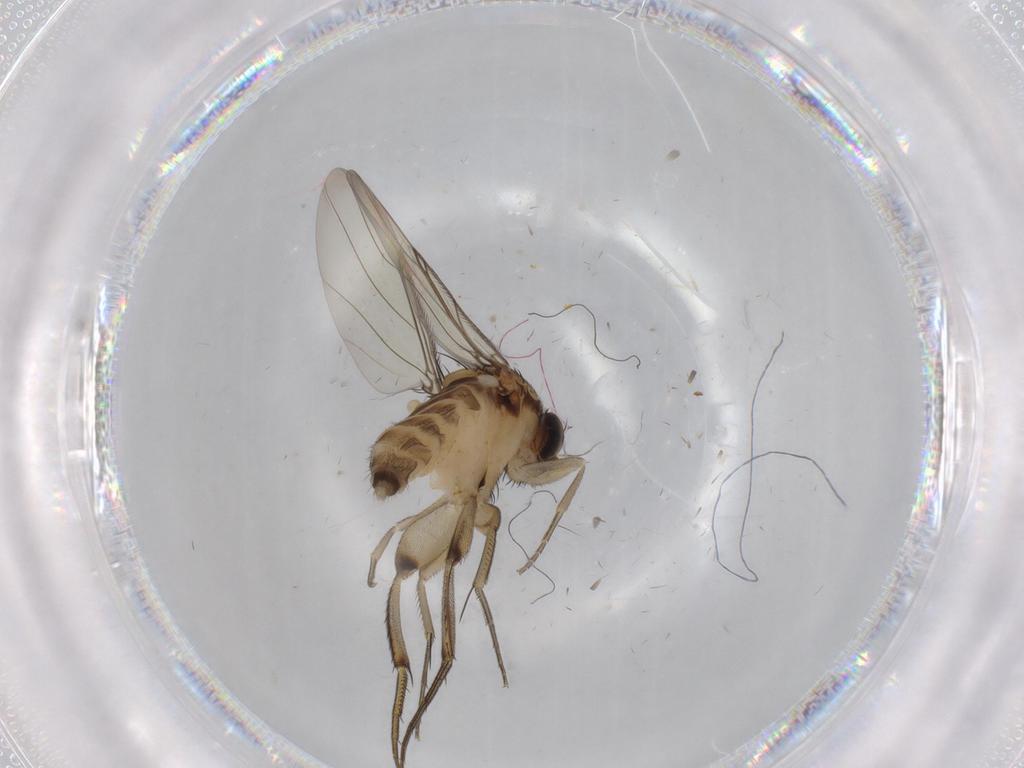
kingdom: Animalia
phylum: Arthropoda
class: Insecta
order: Diptera
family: Phoridae
